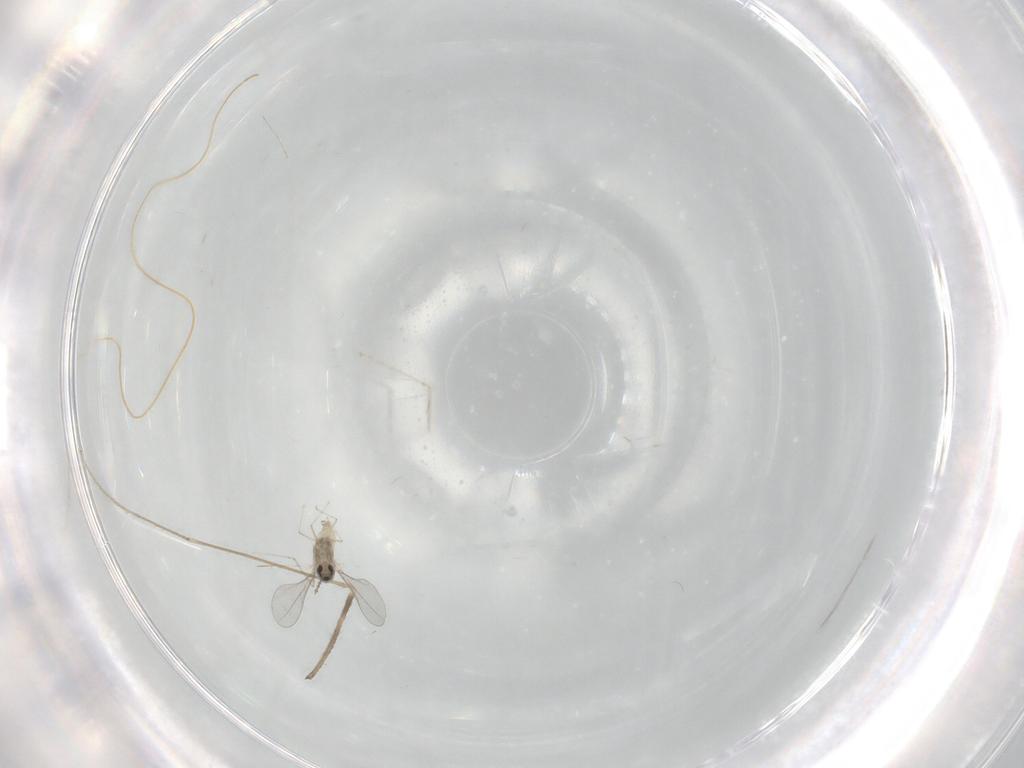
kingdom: Animalia
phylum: Arthropoda
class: Insecta
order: Diptera
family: Cecidomyiidae
